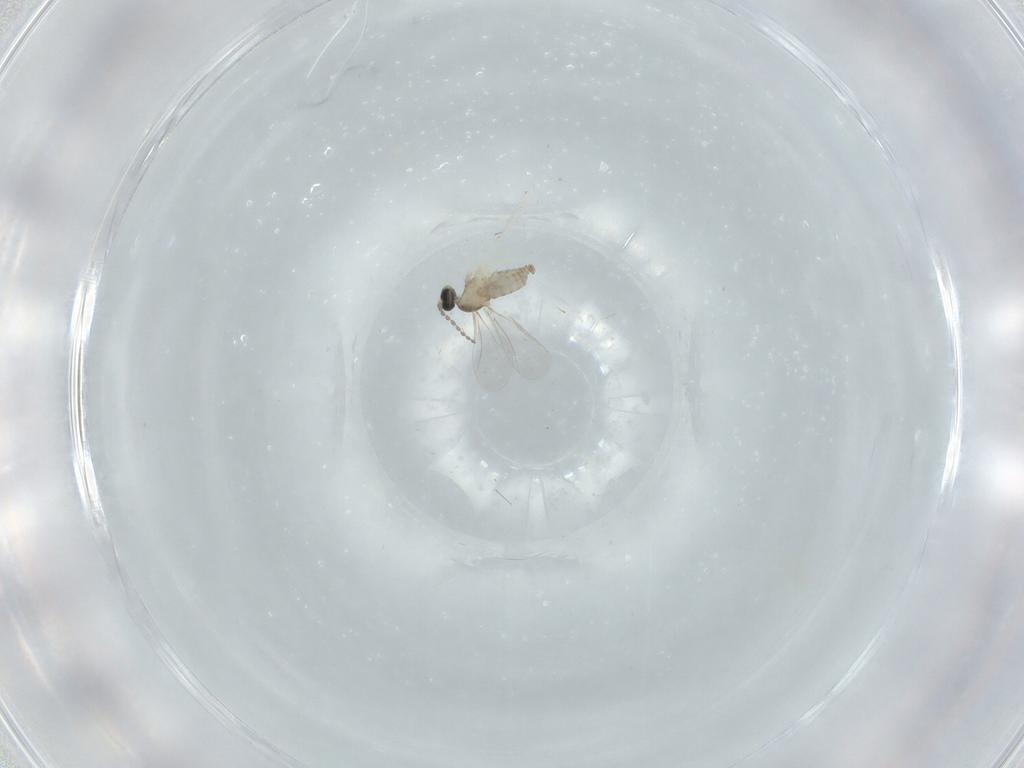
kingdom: Animalia
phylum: Arthropoda
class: Insecta
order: Diptera
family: Sciaridae
